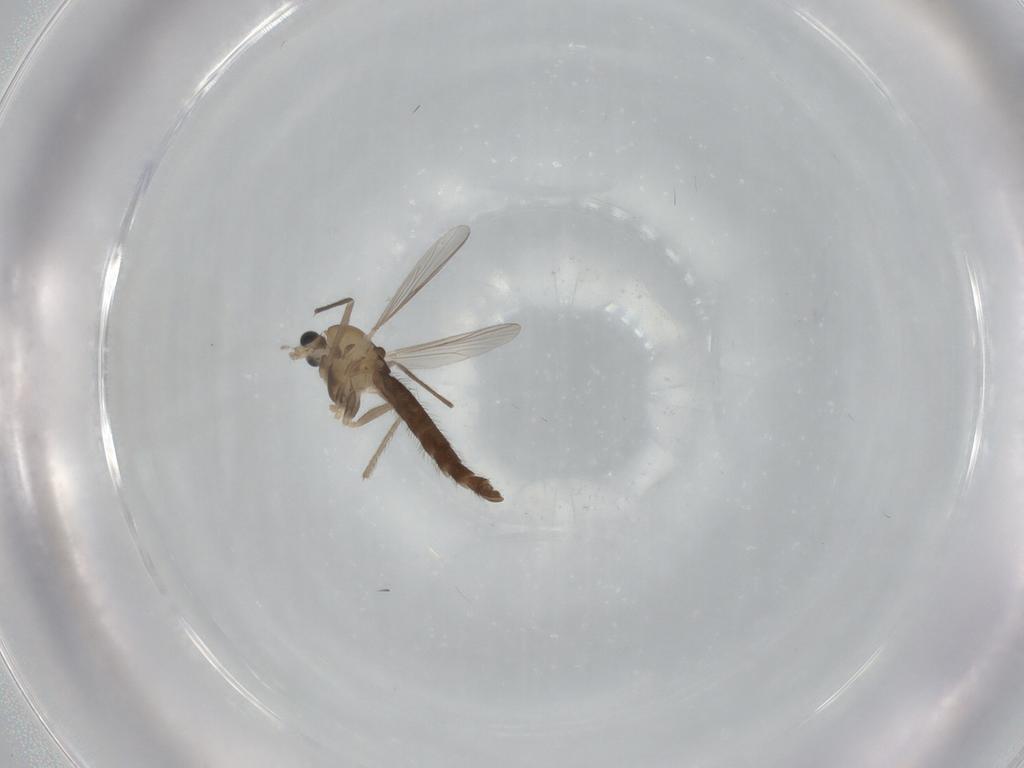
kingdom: Animalia
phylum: Arthropoda
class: Insecta
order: Diptera
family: Chironomidae
